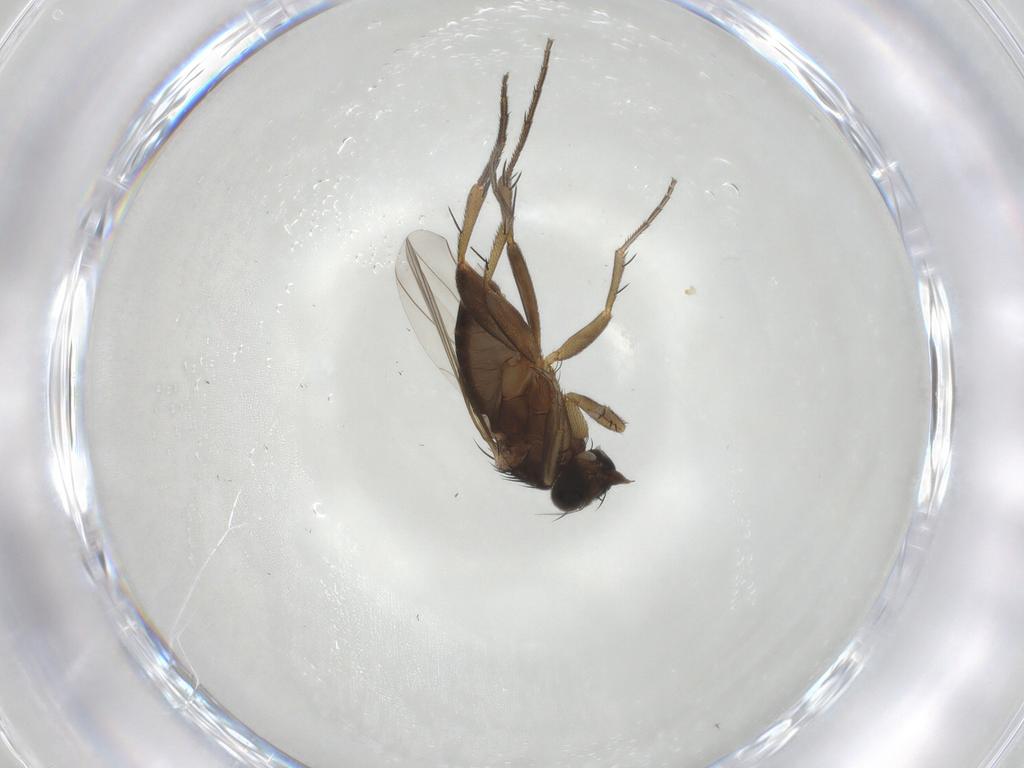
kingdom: Animalia
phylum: Arthropoda
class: Insecta
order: Diptera
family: Phoridae
